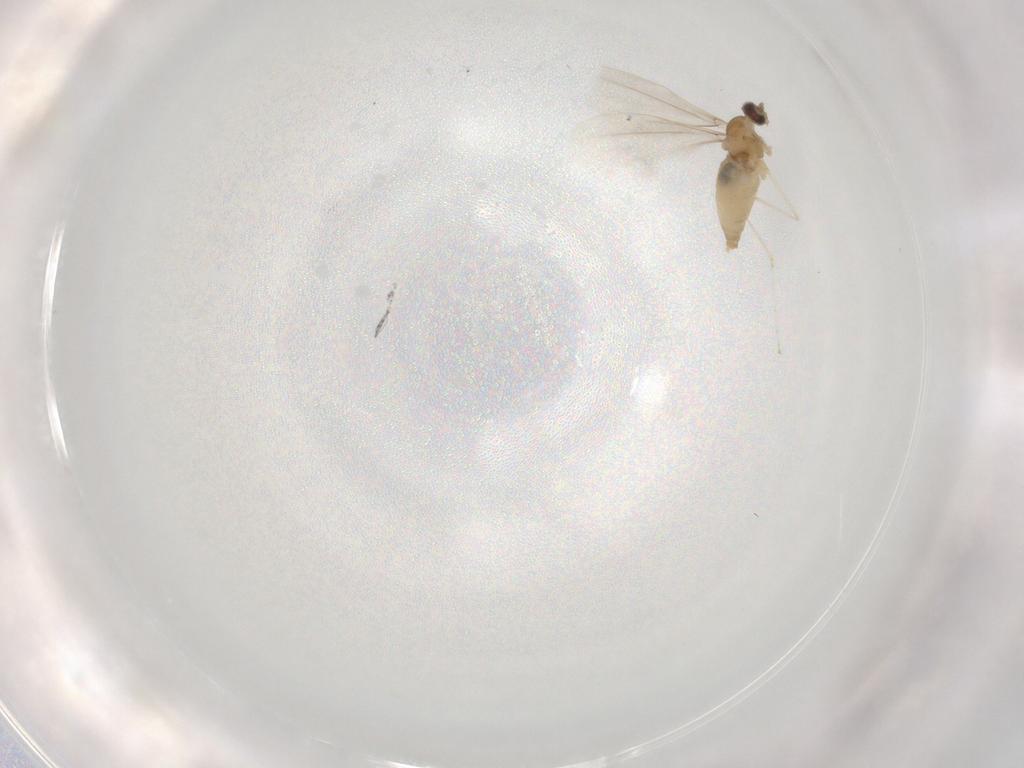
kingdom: Animalia
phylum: Arthropoda
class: Insecta
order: Diptera
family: Cecidomyiidae
